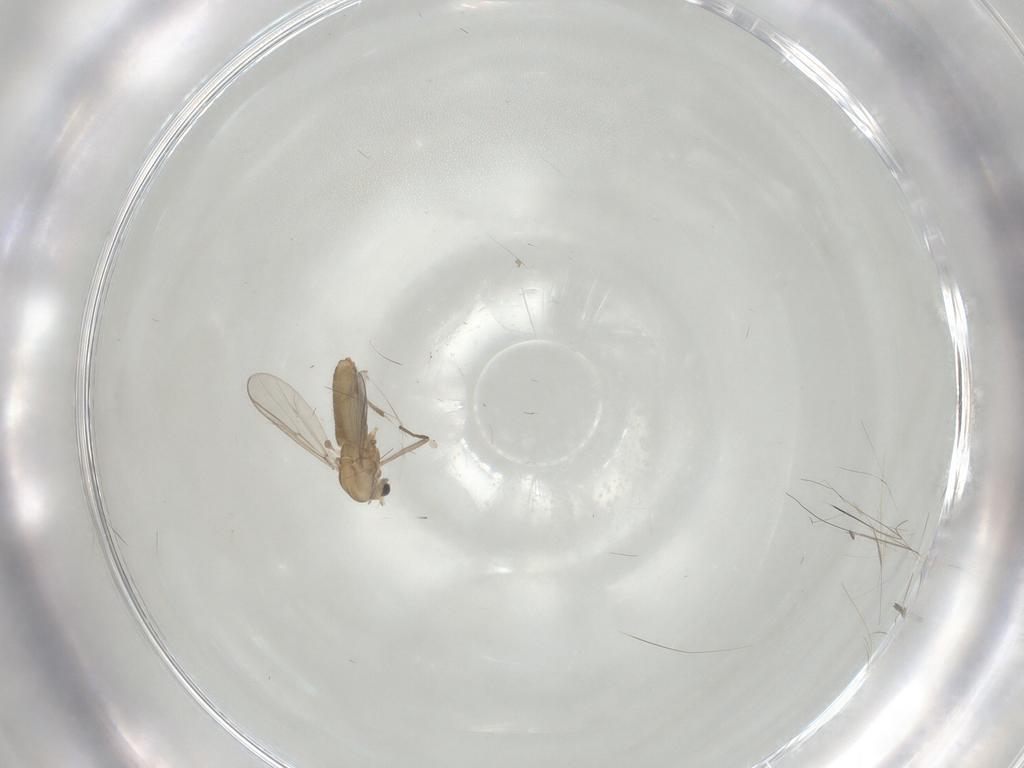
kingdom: Animalia
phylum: Arthropoda
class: Insecta
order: Diptera
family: Chironomidae
